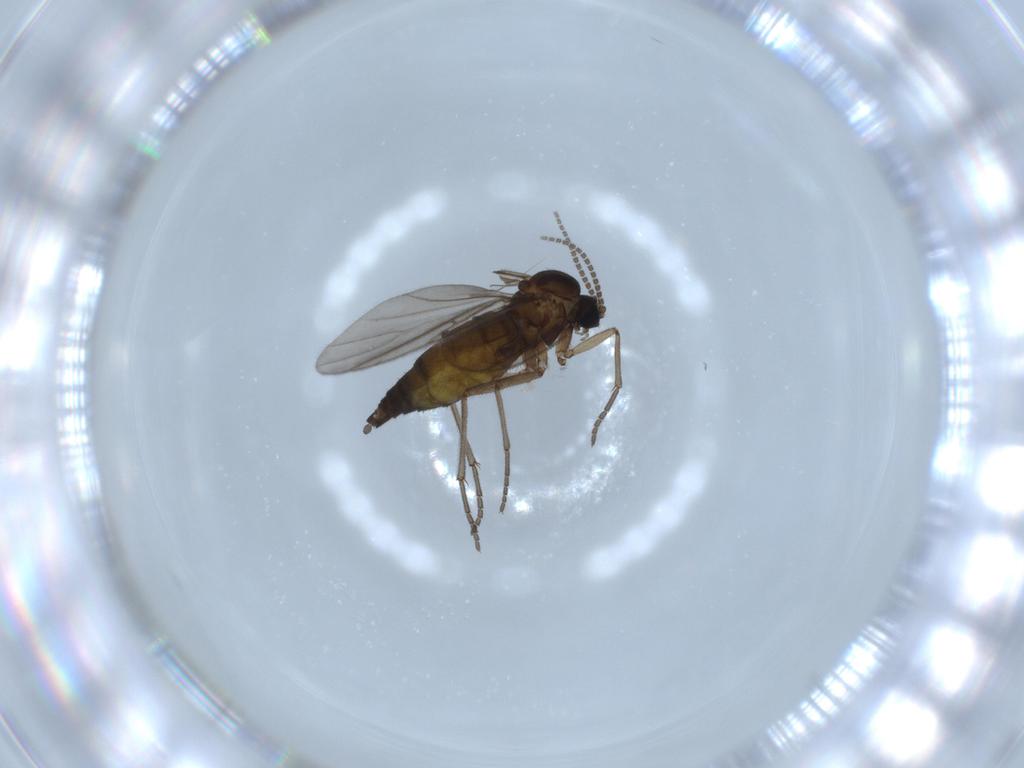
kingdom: Animalia
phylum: Arthropoda
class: Insecta
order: Diptera
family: Sciaridae
